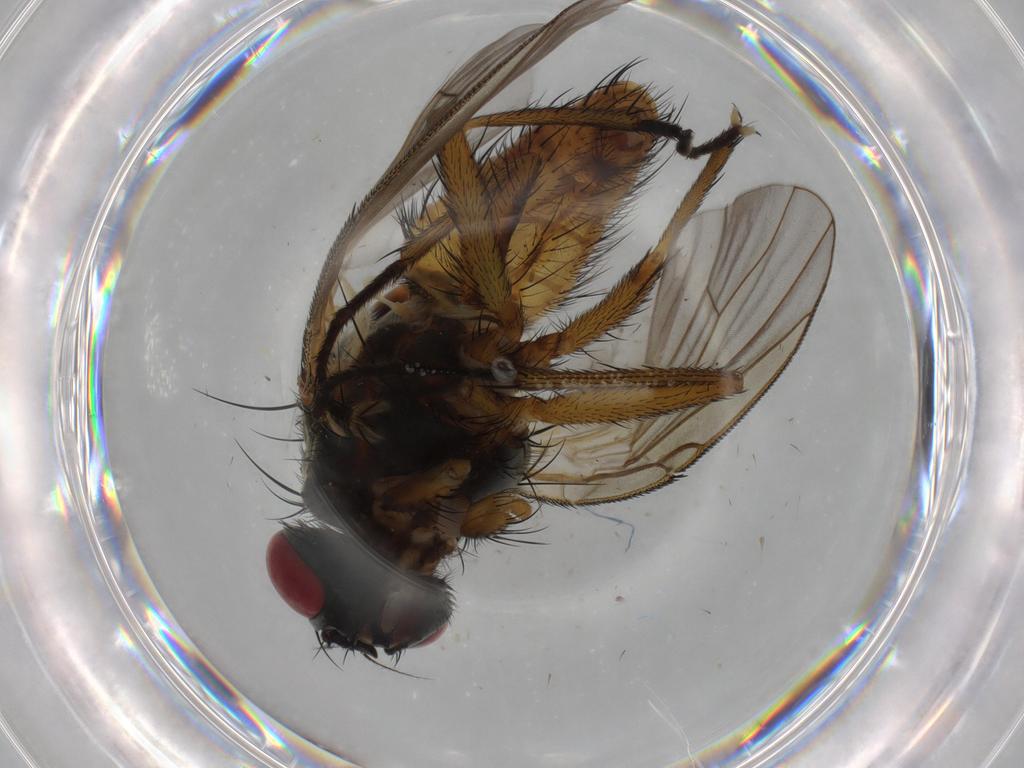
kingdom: Animalia
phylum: Arthropoda
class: Insecta
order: Diptera
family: Muscidae
